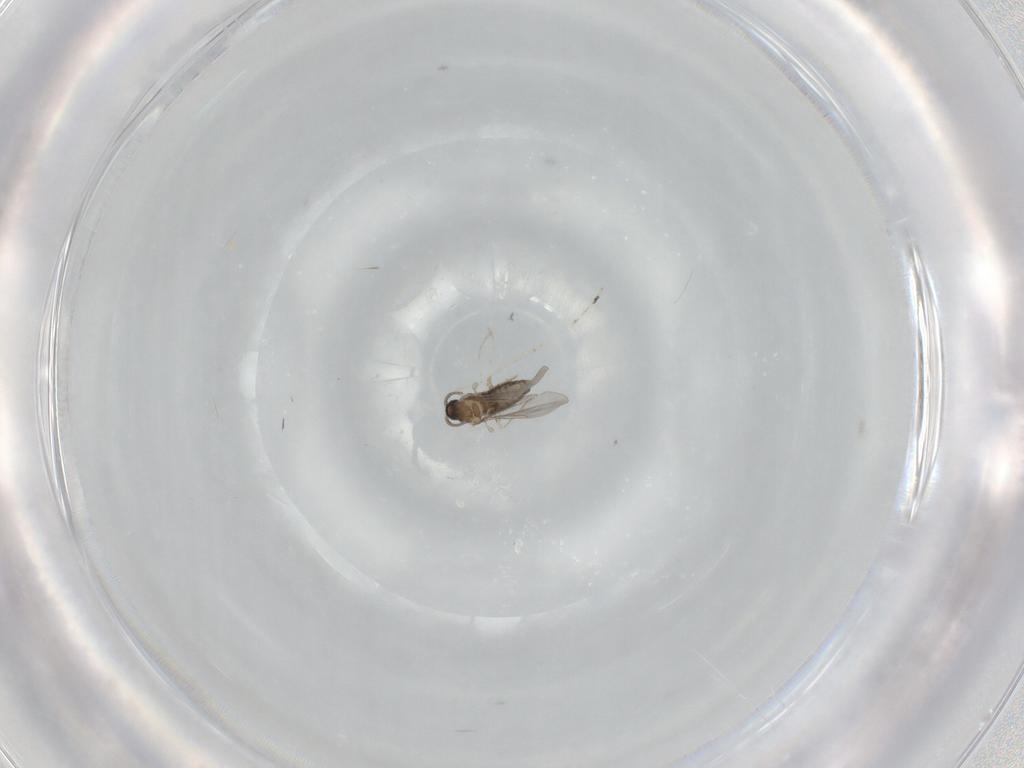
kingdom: Animalia
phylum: Arthropoda
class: Insecta
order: Diptera
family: Cecidomyiidae
